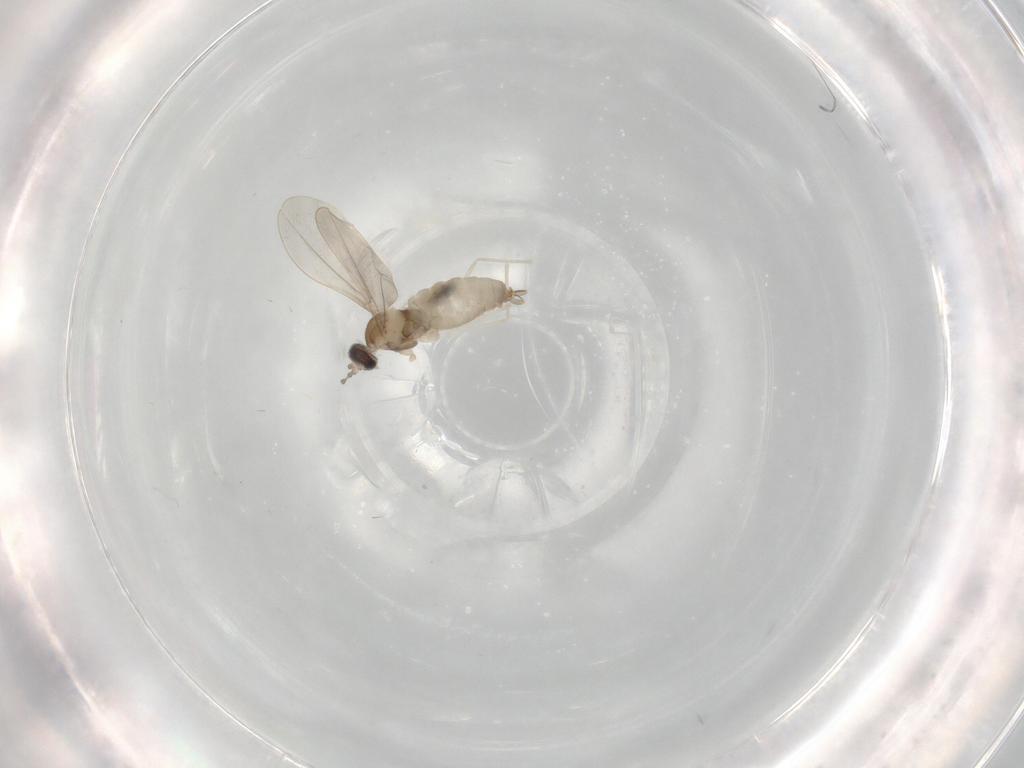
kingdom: Animalia
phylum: Arthropoda
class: Insecta
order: Diptera
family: Cecidomyiidae
